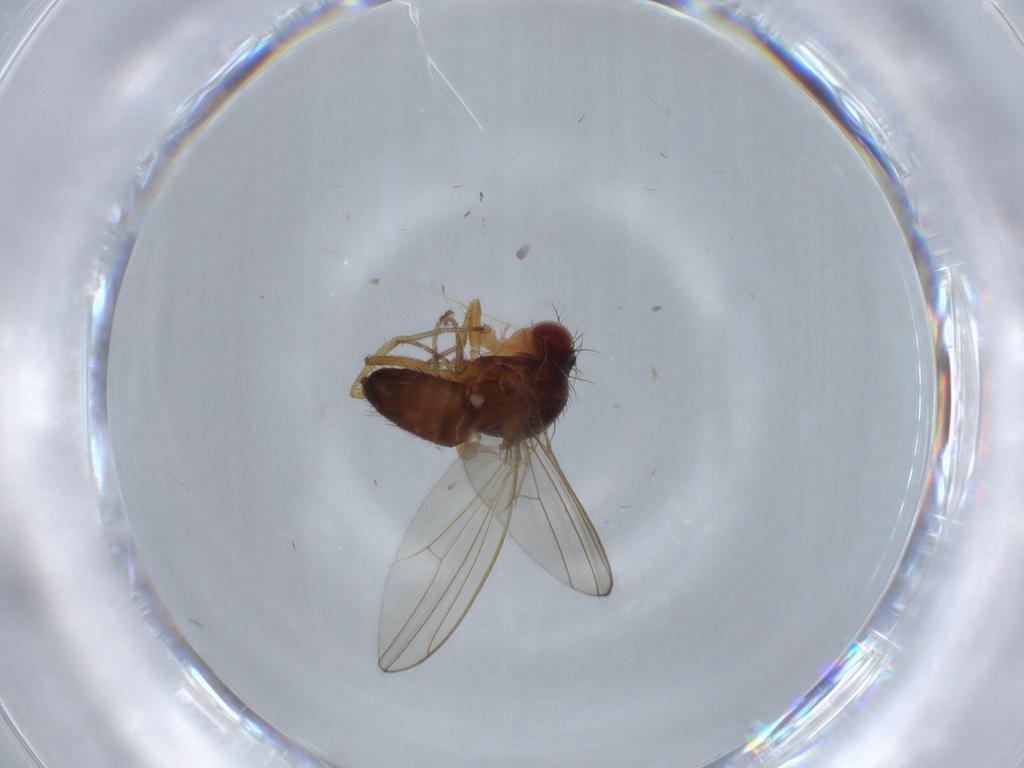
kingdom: Animalia
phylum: Arthropoda
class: Insecta
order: Diptera
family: Drosophilidae
